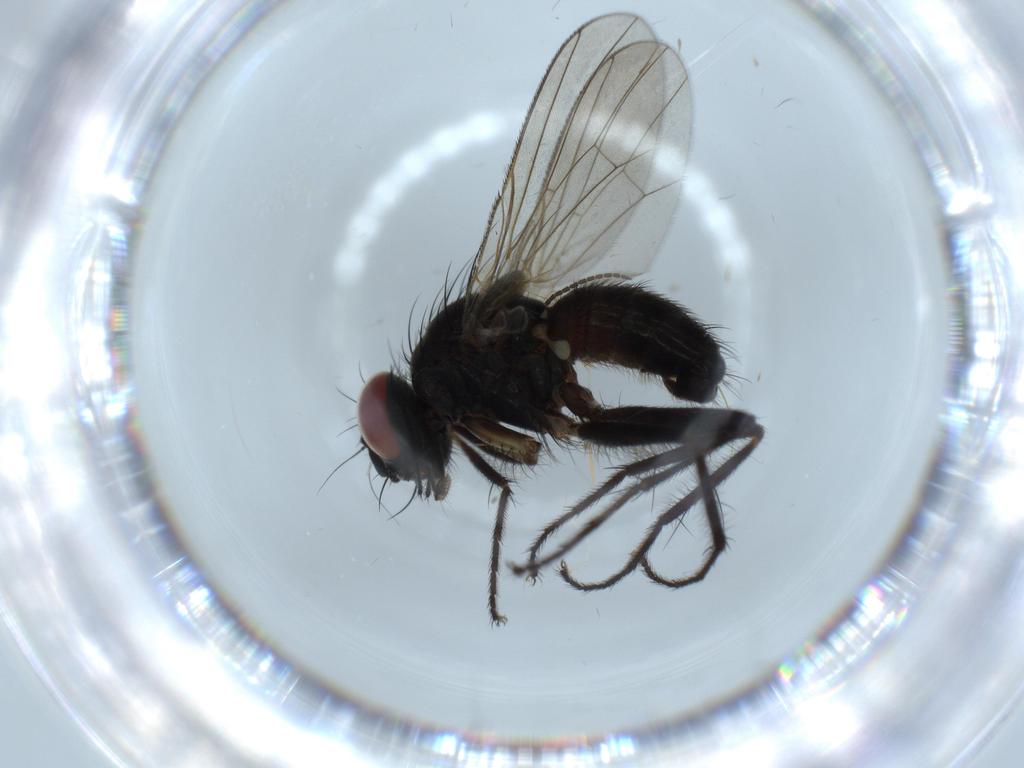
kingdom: Animalia
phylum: Arthropoda
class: Insecta
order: Diptera
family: Muscidae
